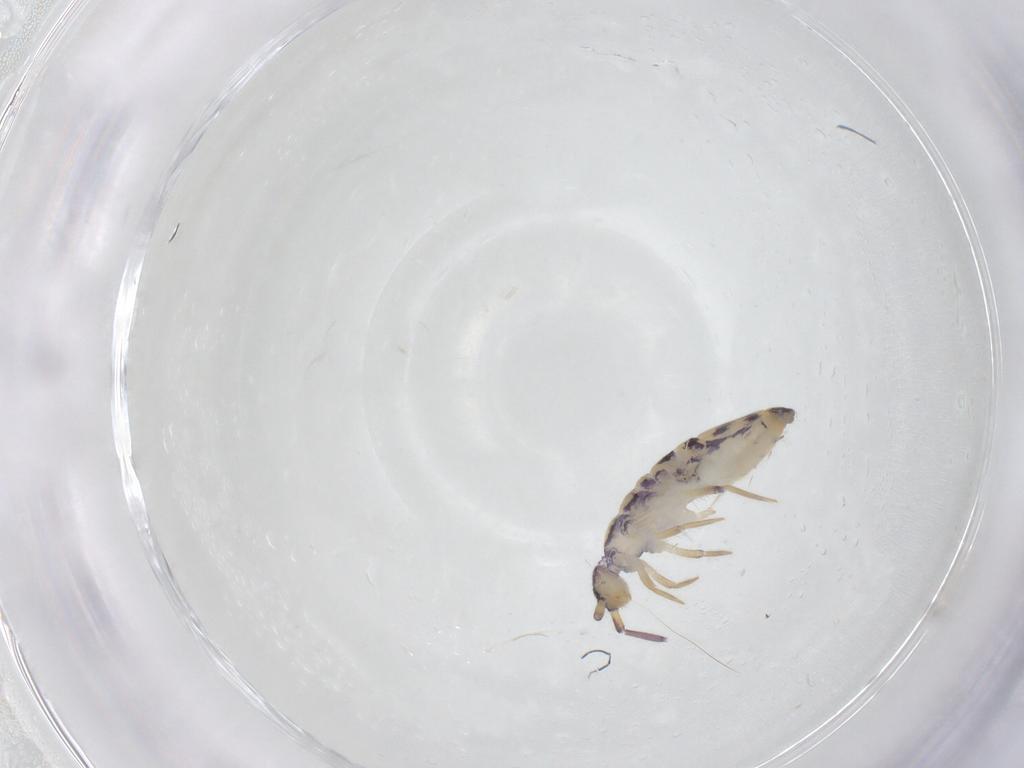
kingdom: Animalia
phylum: Arthropoda
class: Collembola
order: Entomobryomorpha
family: Entomobryidae
